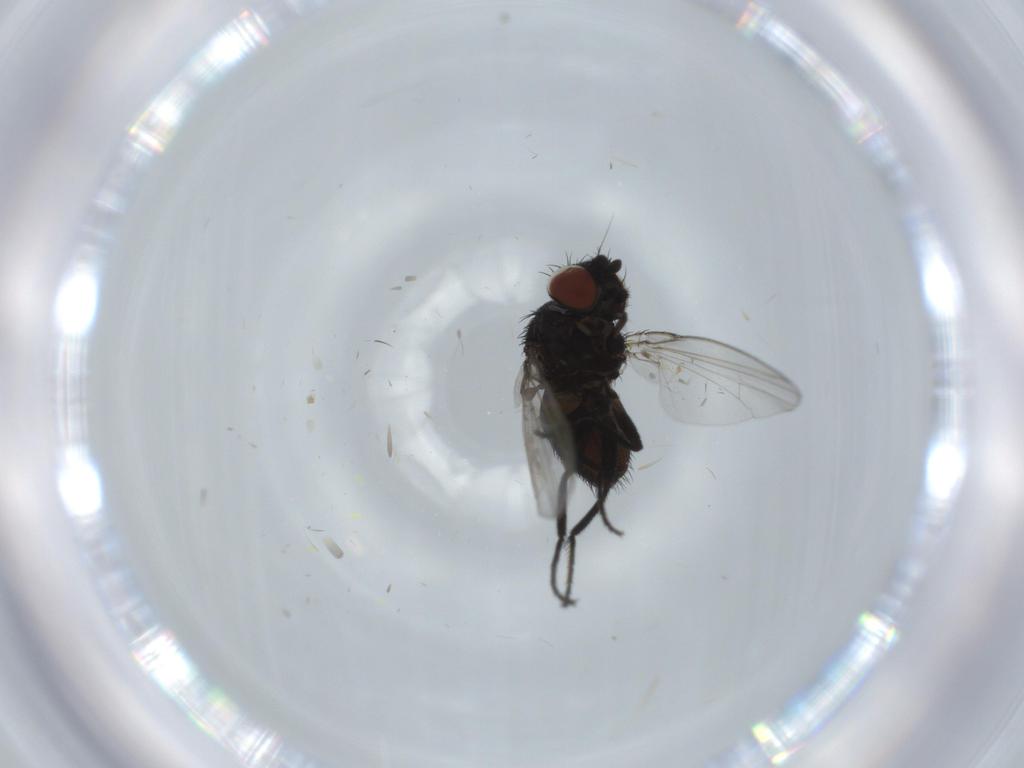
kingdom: Animalia
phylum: Arthropoda
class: Insecta
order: Diptera
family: Milichiidae
